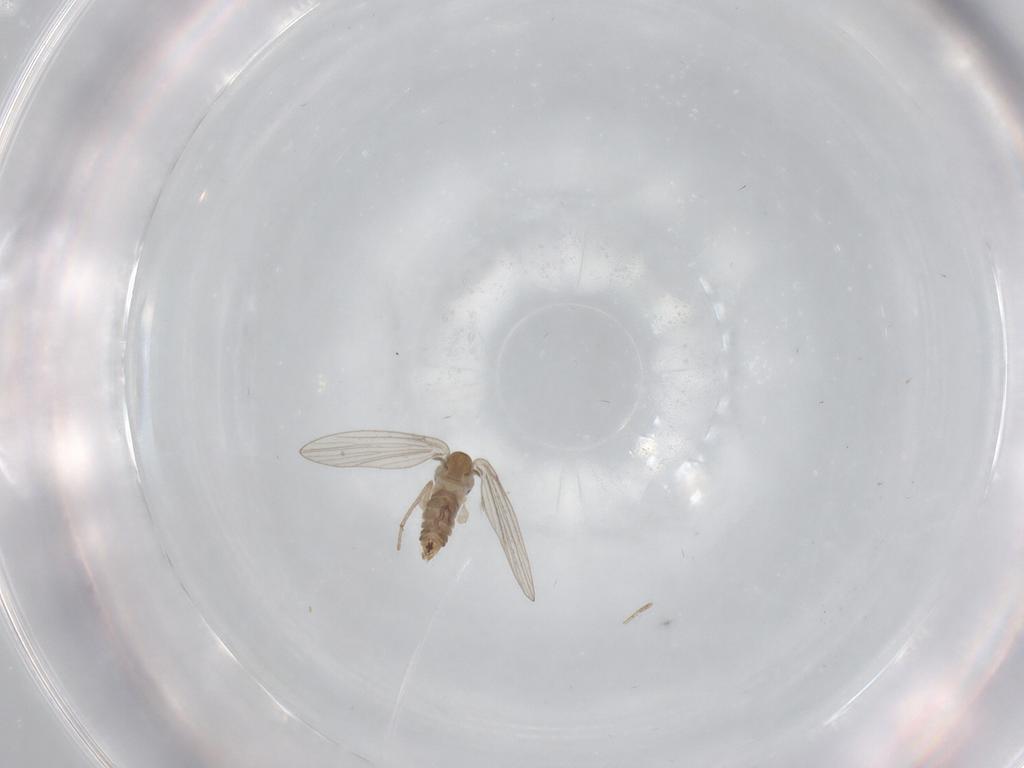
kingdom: Animalia
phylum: Arthropoda
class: Insecta
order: Diptera
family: Psychodidae
